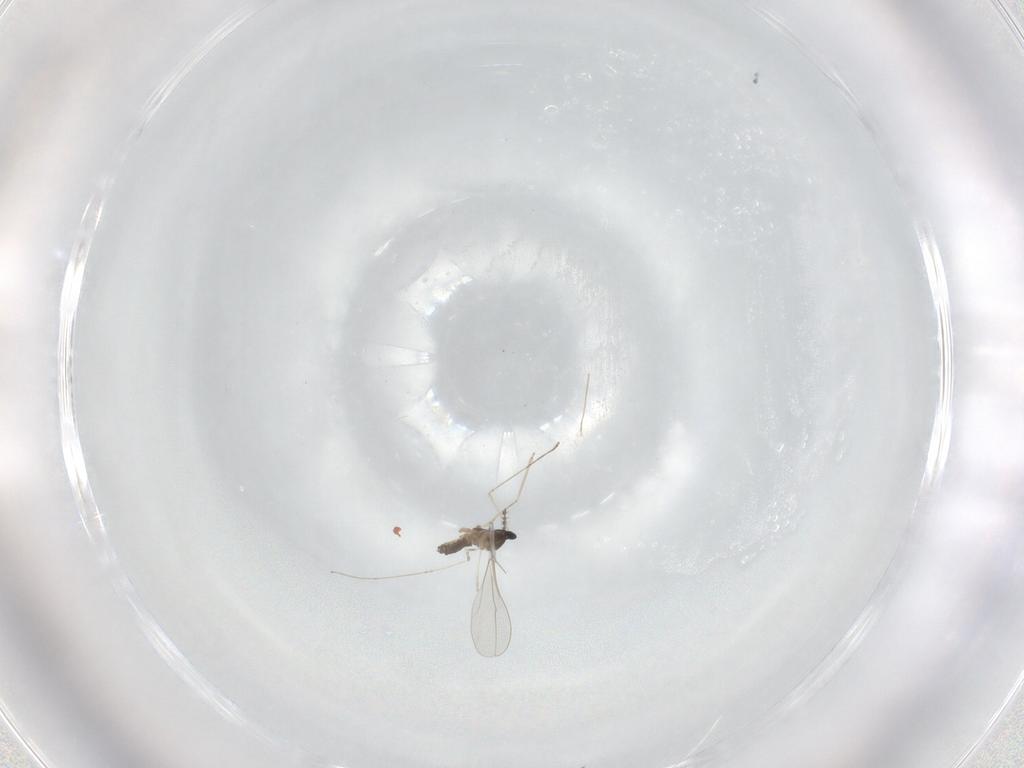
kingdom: Animalia
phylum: Arthropoda
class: Insecta
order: Diptera
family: Cecidomyiidae
